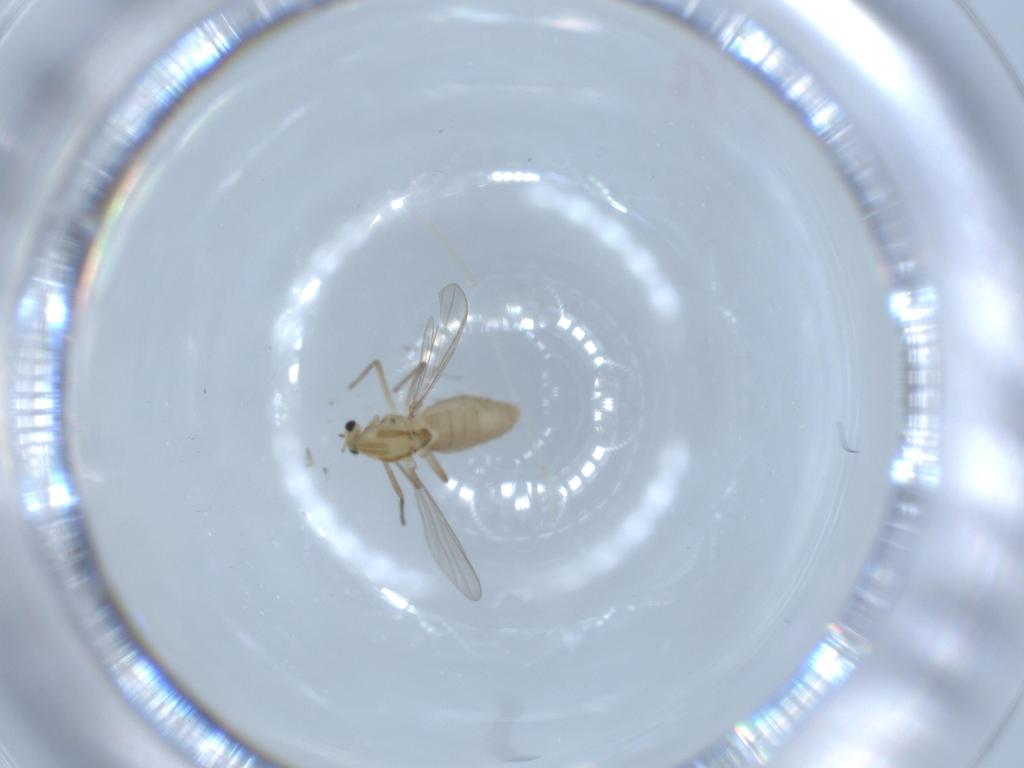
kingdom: Animalia
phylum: Arthropoda
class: Insecta
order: Diptera
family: Chironomidae
